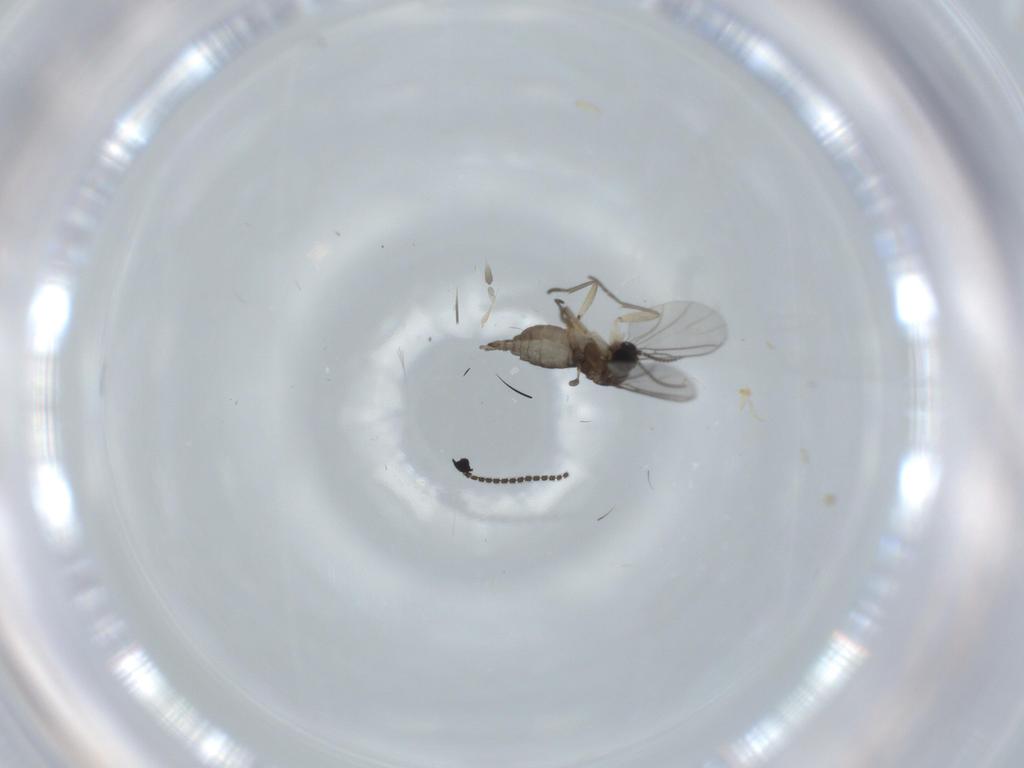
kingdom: Animalia
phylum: Arthropoda
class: Insecta
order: Diptera
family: Sciaridae
